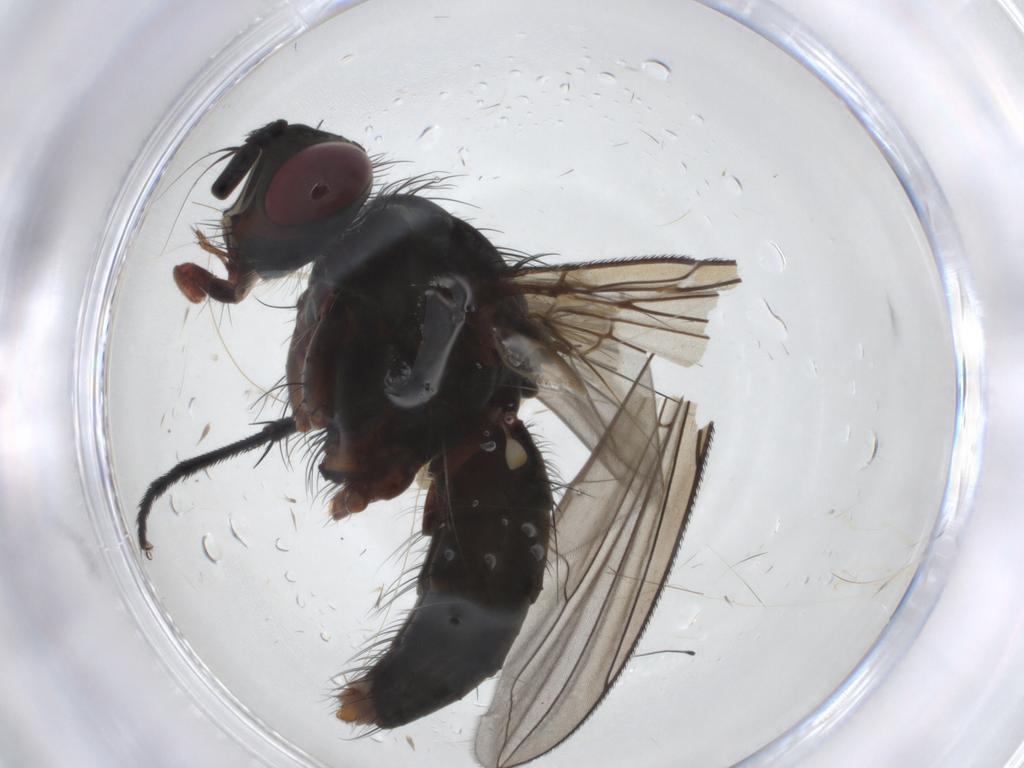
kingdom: Animalia
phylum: Arthropoda
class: Insecta
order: Diptera
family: Tachinidae
